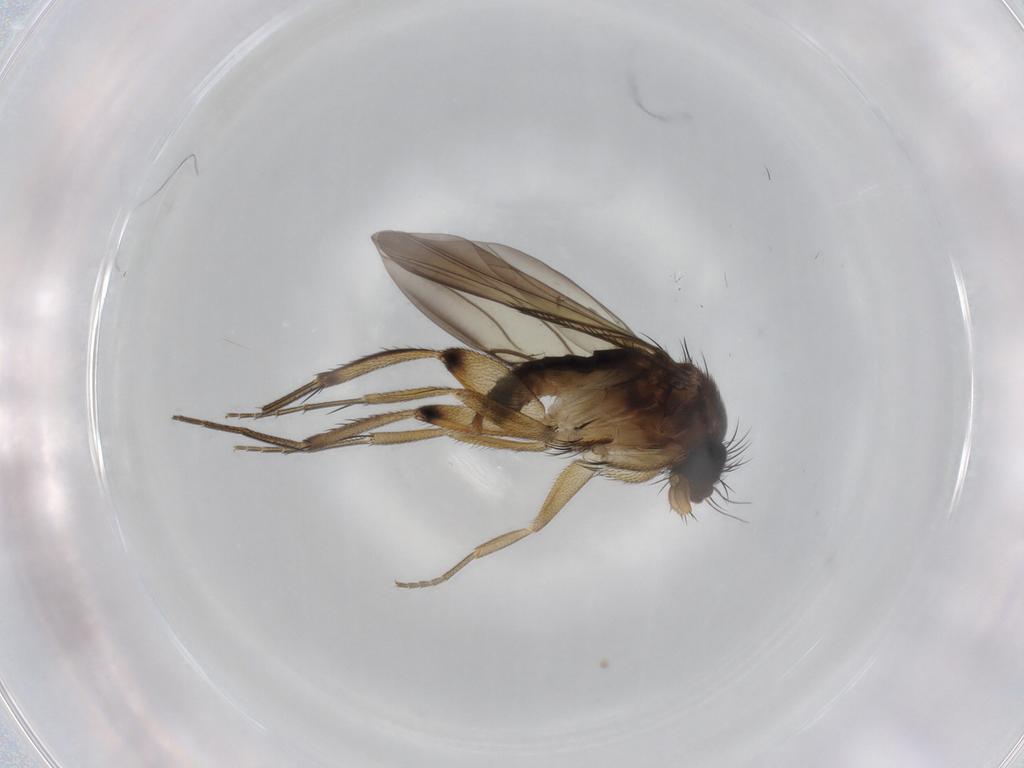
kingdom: Animalia
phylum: Arthropoda
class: Insecta
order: Diptera
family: Phoridae
